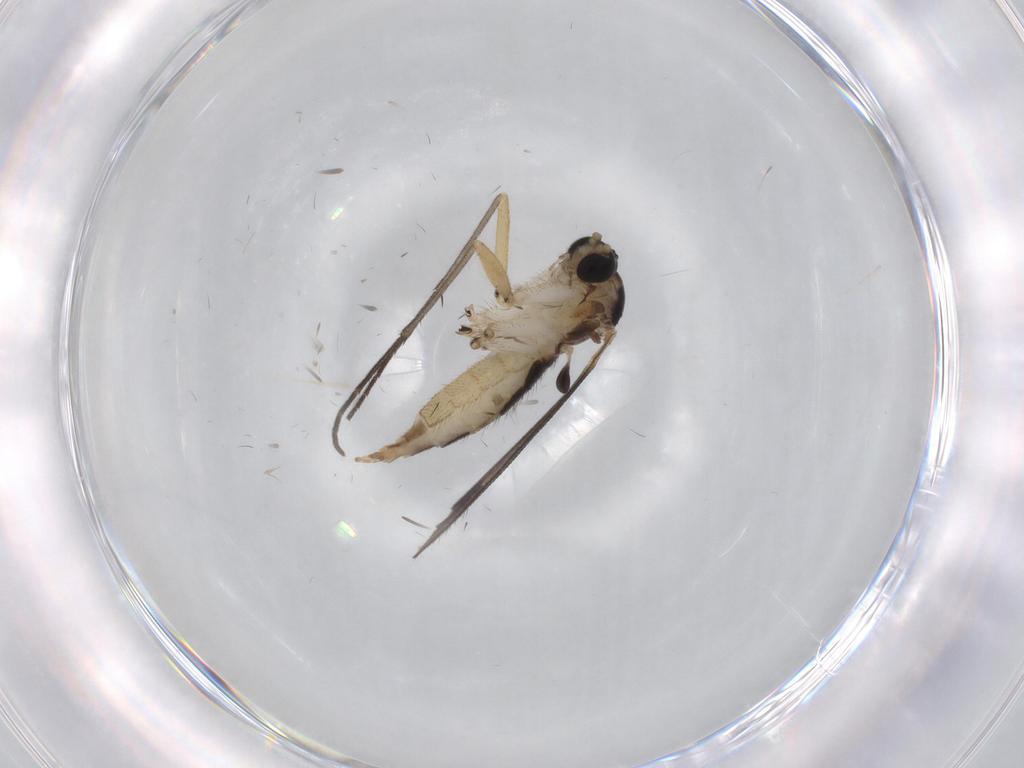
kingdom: Animalia
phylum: Arthropoda
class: Insecta
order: Diptera
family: Sciaridae
